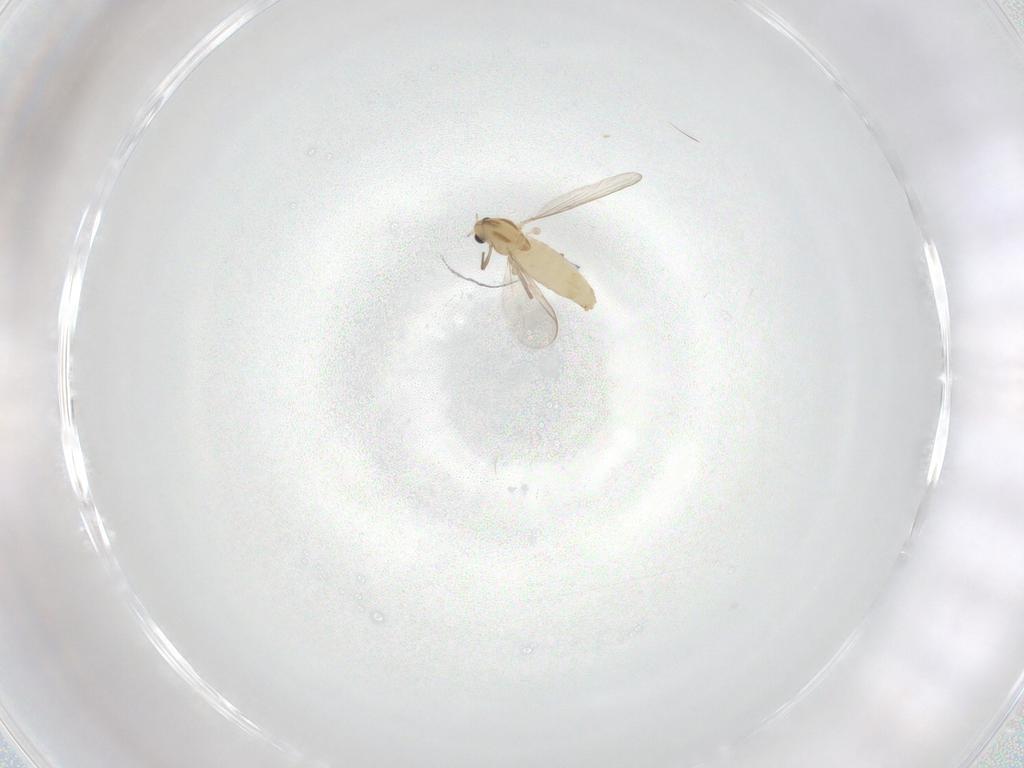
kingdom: Animalia
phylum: Arthropoda
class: Insecta
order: Diptera
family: Chironomidae
